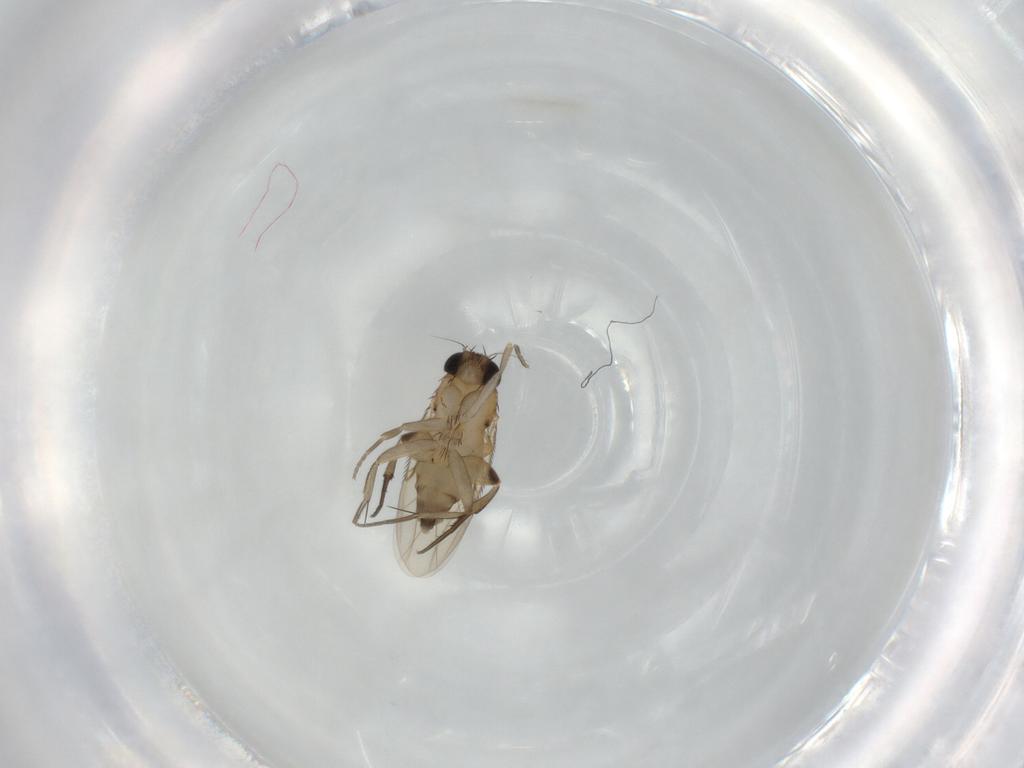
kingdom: Animalia
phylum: Arthropoda
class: Insecta
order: Diptera
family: Phoridae
